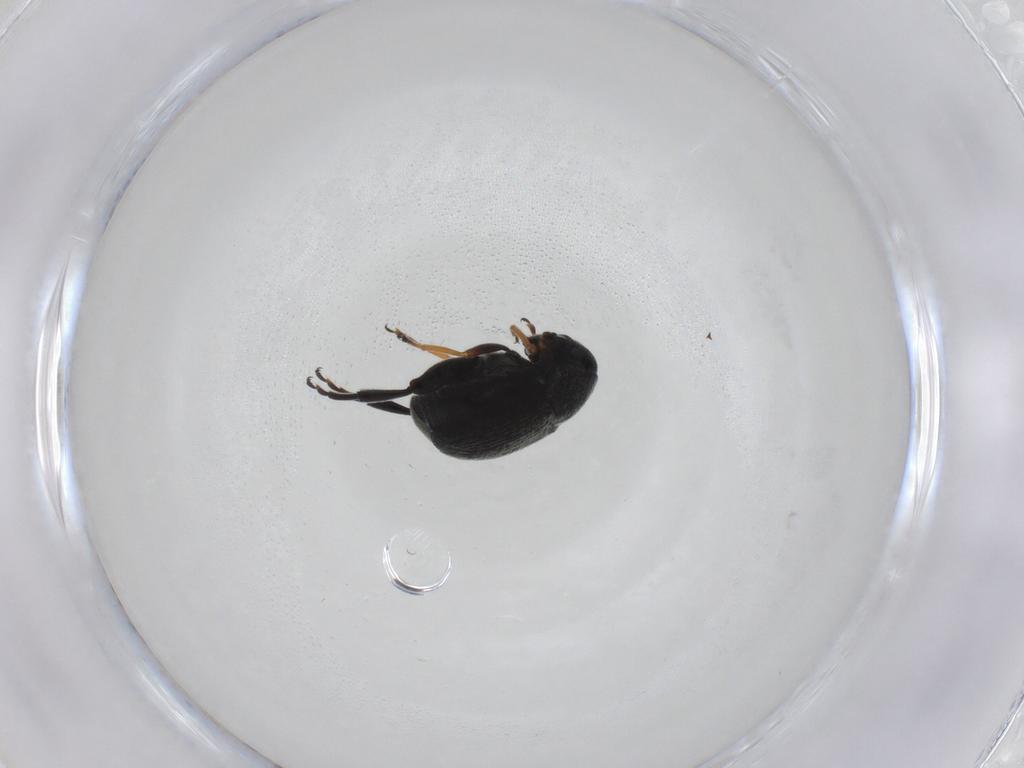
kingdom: Animalia
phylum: Arthropoda
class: Insecta
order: Coleoptera
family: Chrysomelidae
